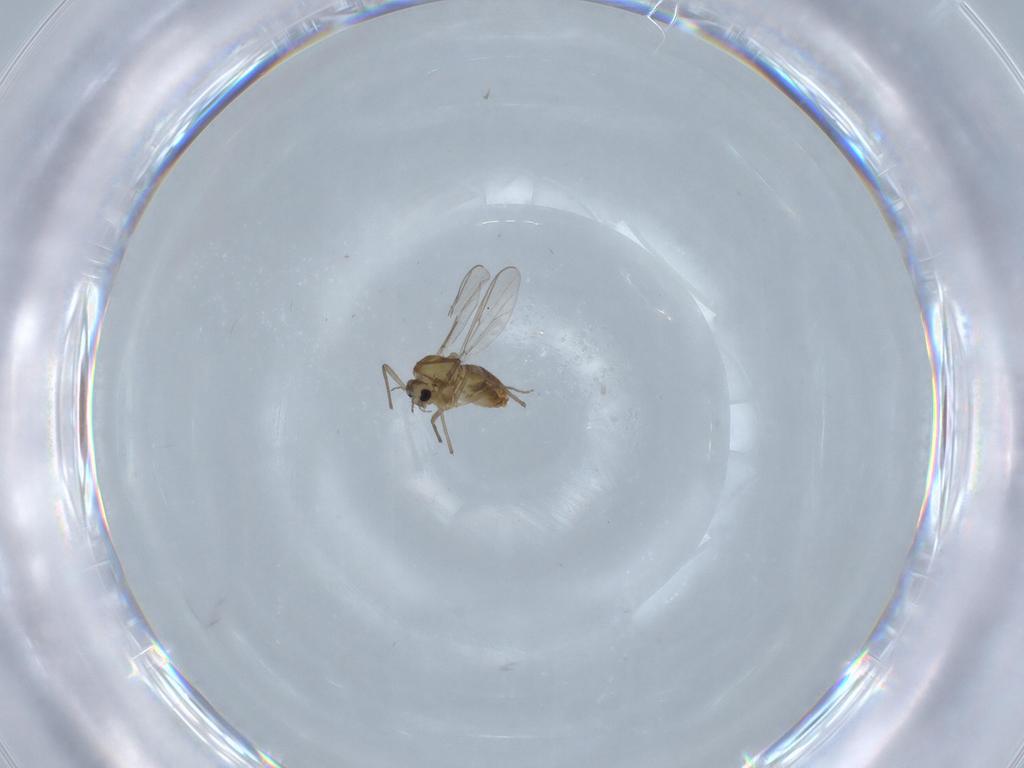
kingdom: Animalia
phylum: Arthropoda
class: Insecta
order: Diptera
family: Chironomidae
